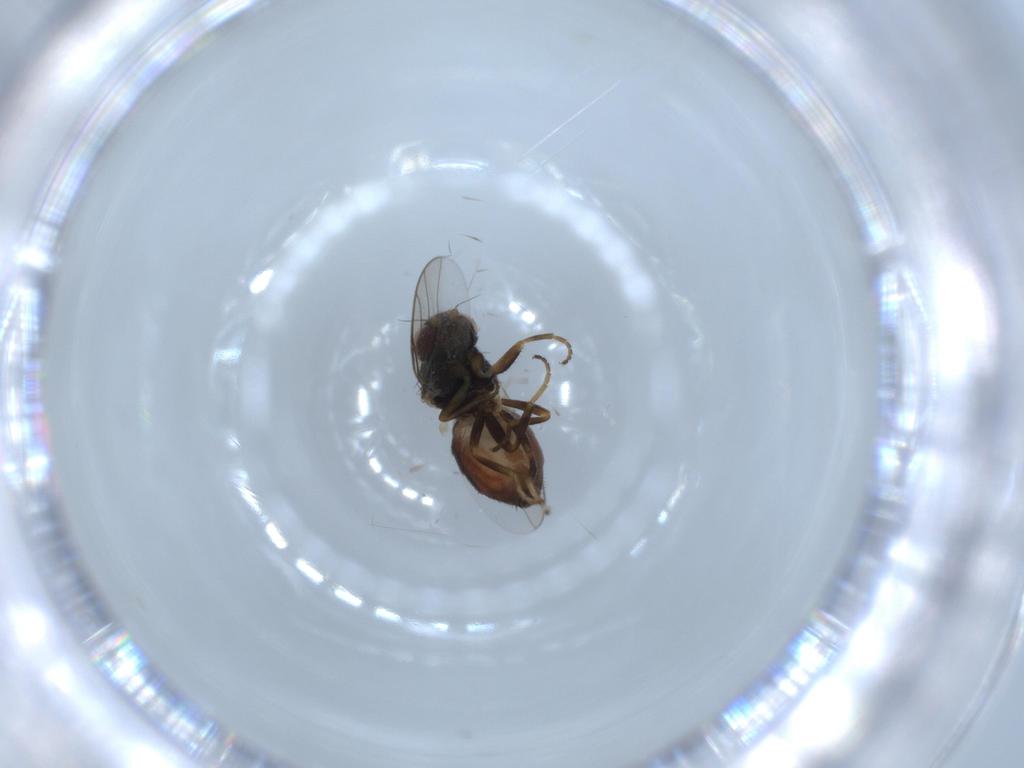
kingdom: Animalia
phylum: Arthropoda
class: Insecta
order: Diptera
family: Chloropidae
